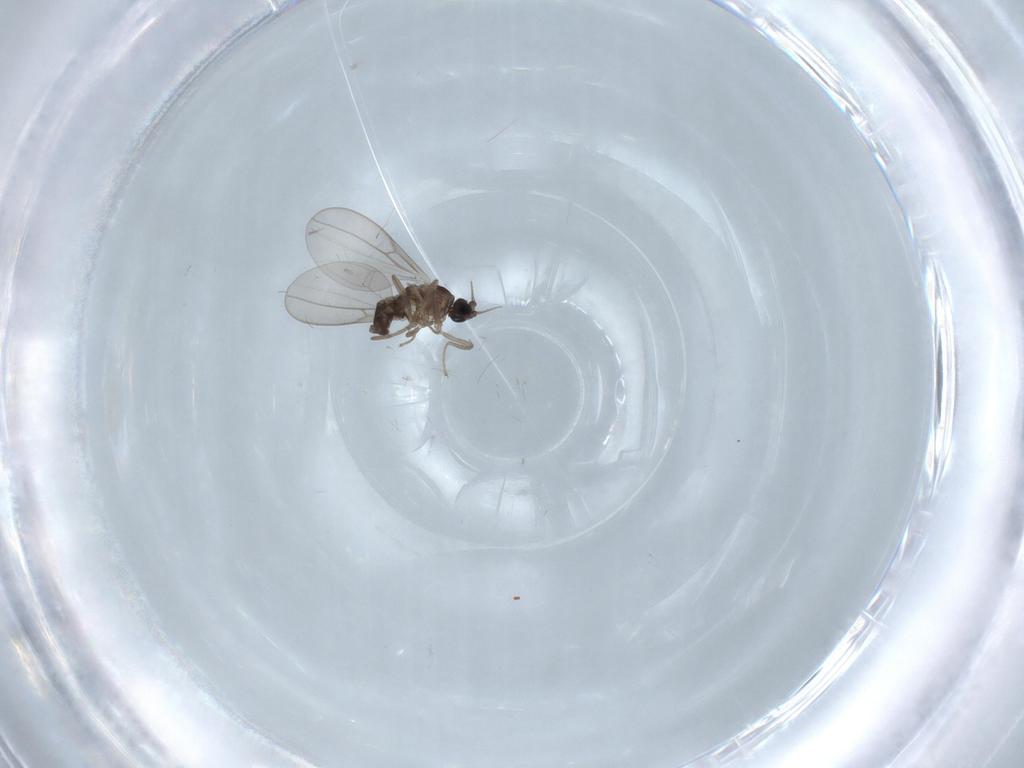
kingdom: Animalia
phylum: Arthropoda
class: Insecta
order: Diptera
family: Cecidomyiidae
